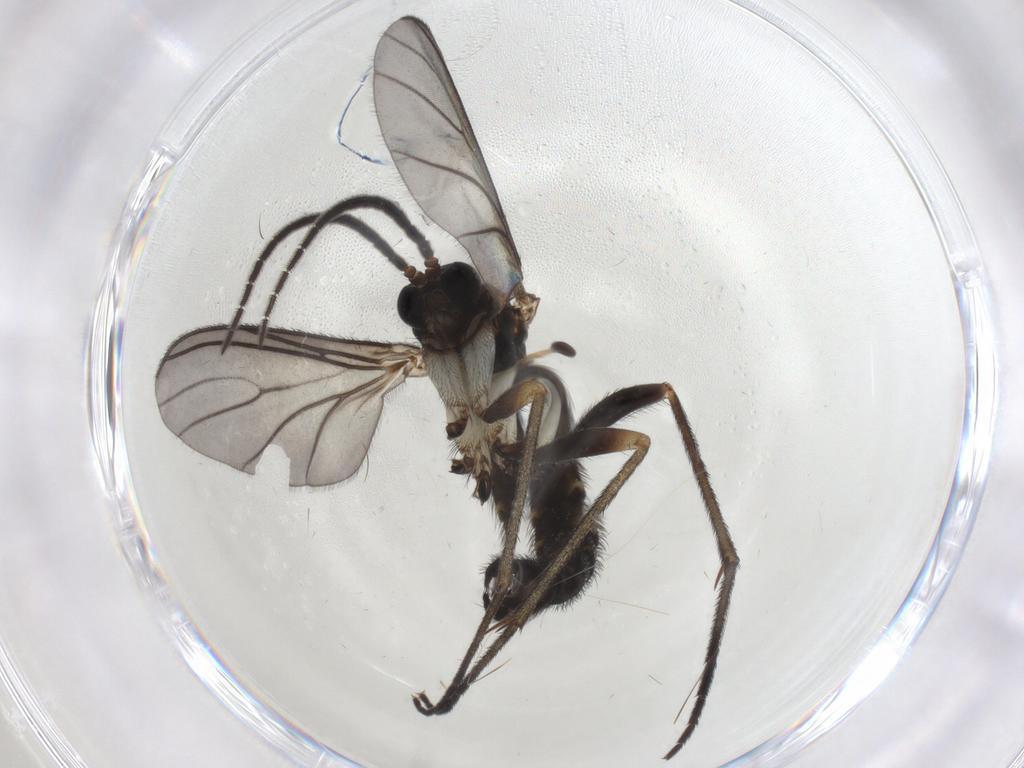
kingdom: Animalia
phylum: Arthropoda
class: Insecta
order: Diptera
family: Sciaridae
